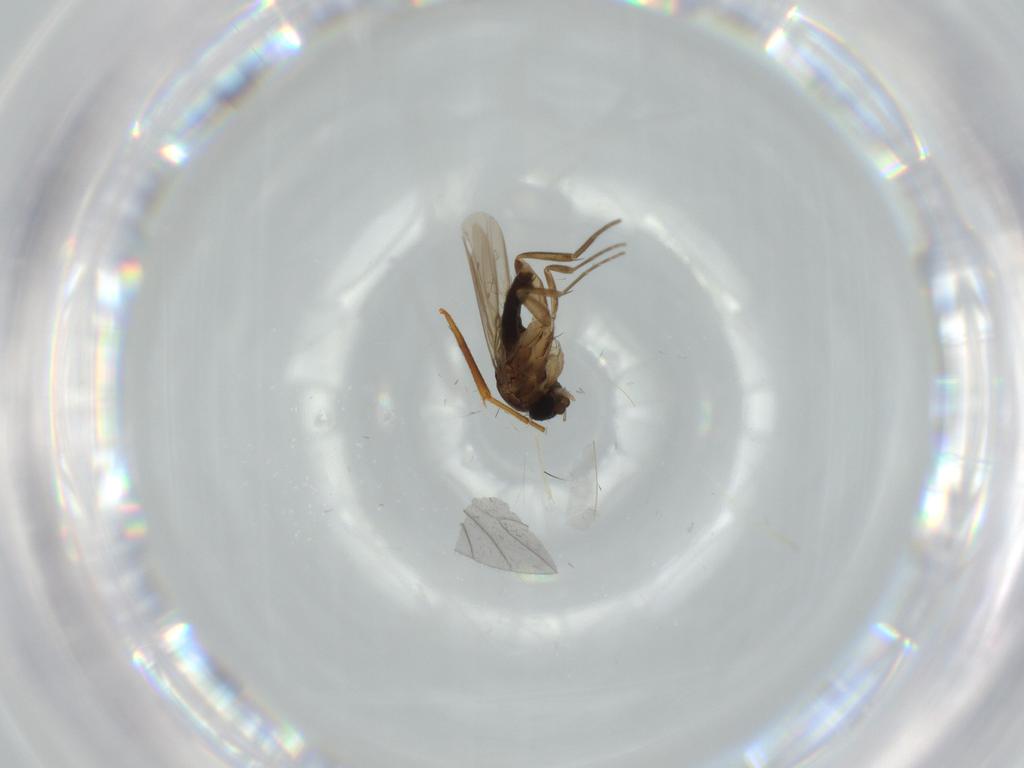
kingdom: Animalia
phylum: Arthropoda
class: Insecta
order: Diptera
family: Phoridae
